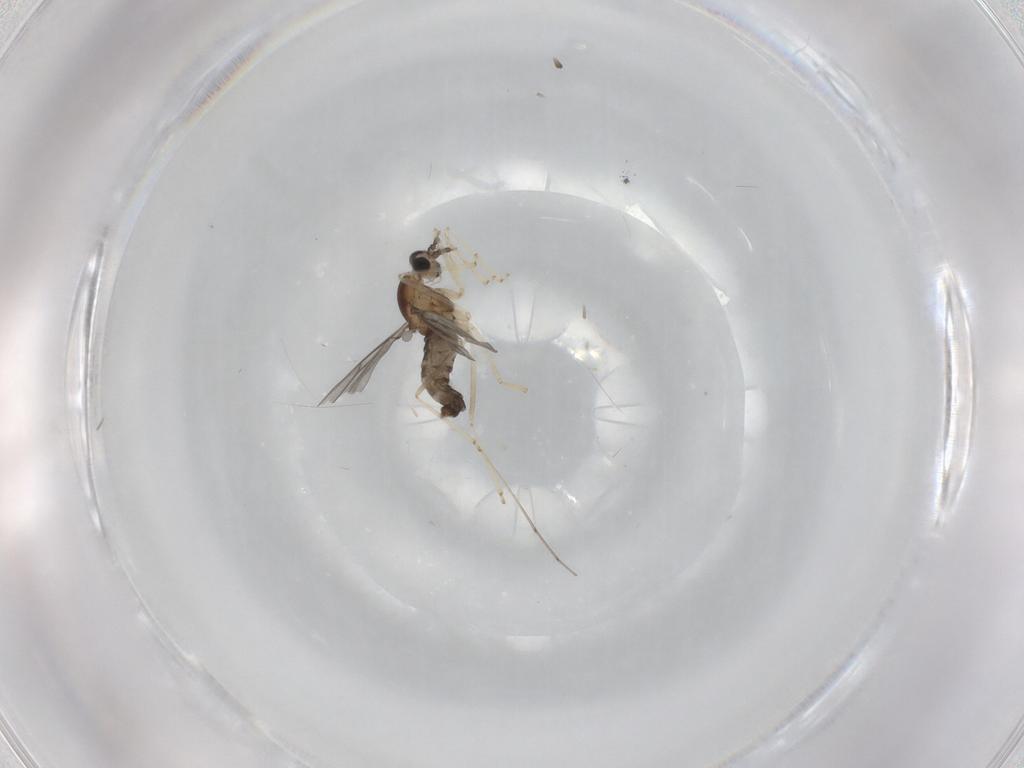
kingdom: Animalia
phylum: Arthropoda
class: Insecta
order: Diptera
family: Cecidomyiidae
